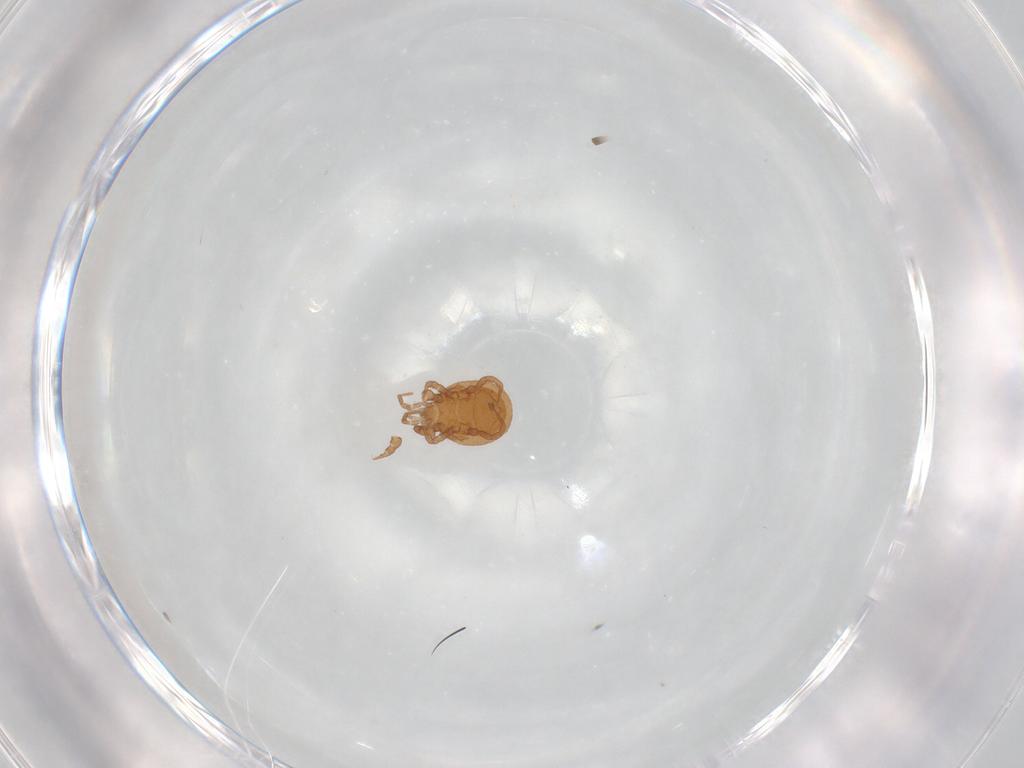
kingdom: Animalia
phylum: Arthropoda
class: Arachnida
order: Mesostigmata
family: Macrochelidae
